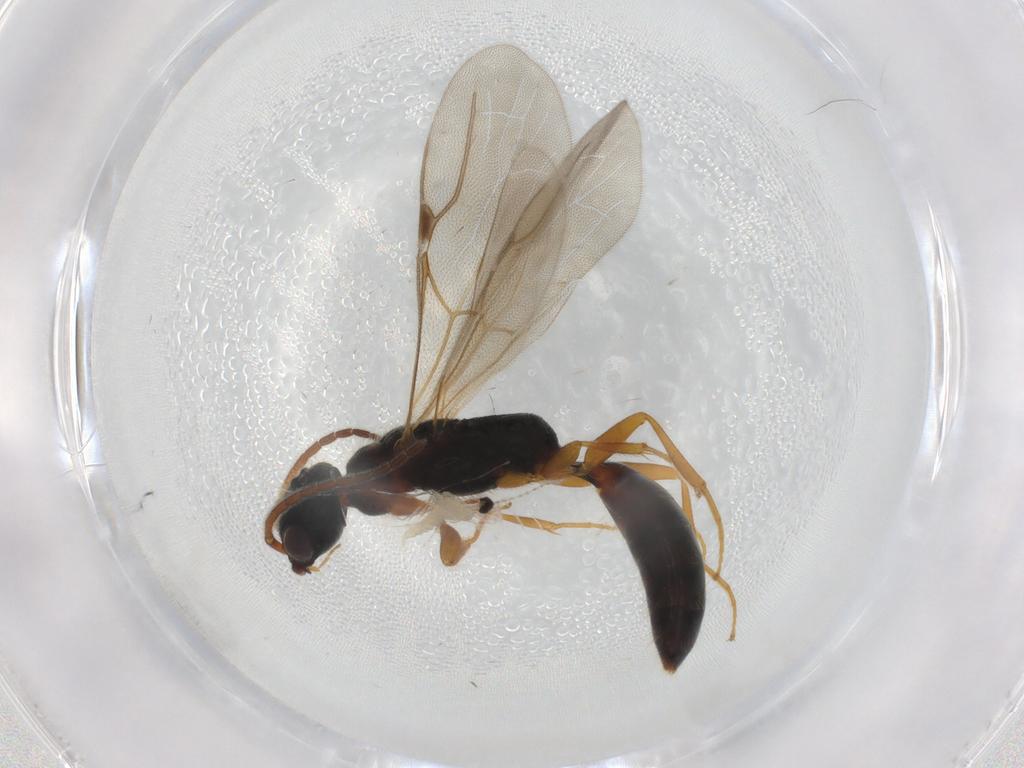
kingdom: Animalia
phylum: Arthropoda
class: Insecta
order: Hymenoptera
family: Bethylidae
